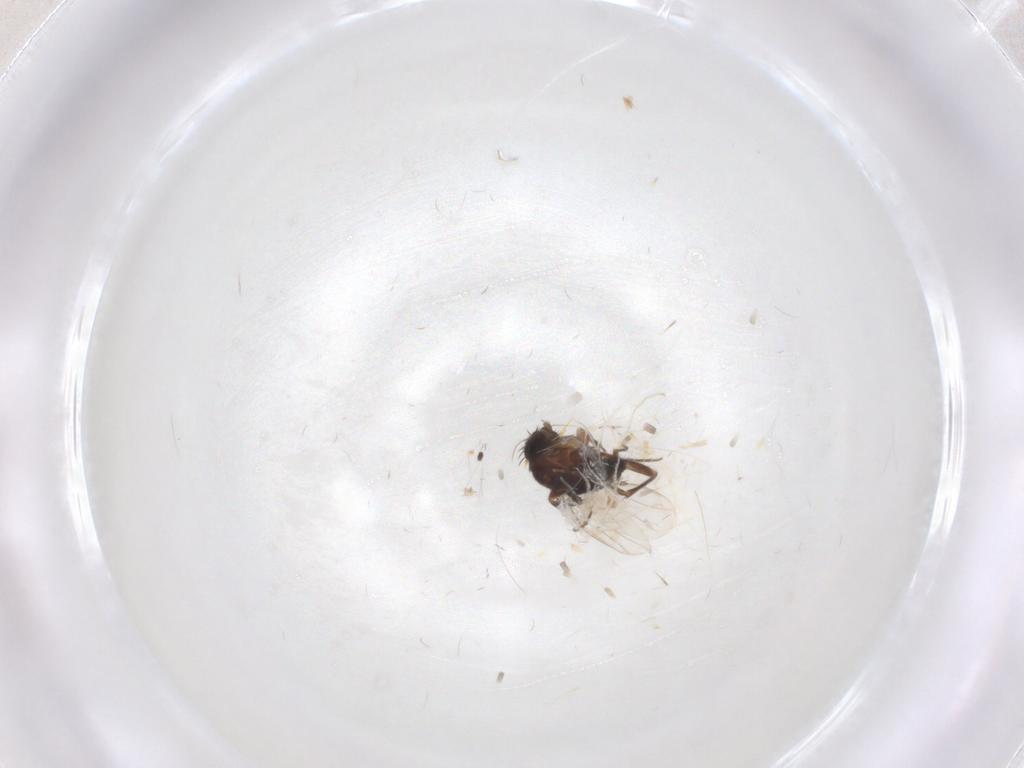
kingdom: Animalia
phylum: Arthropoda
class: Insecta
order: Diptera
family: Phoridae
